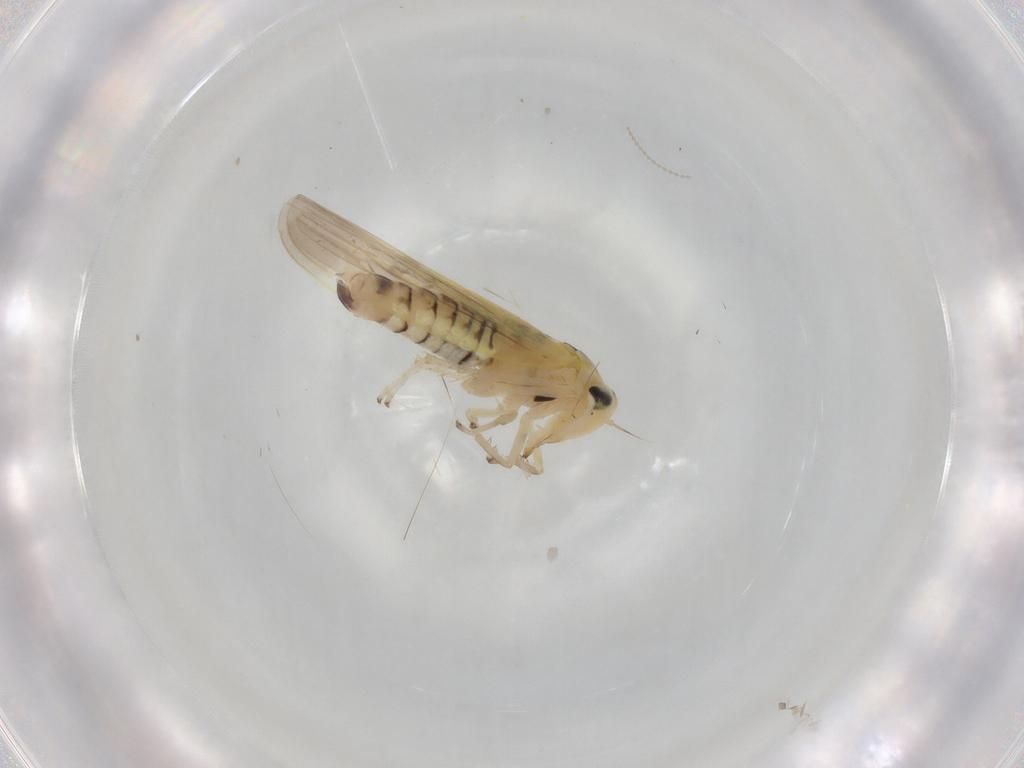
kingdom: Animalia
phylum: Arthropoda
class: Insecta
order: Hemiptera
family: Cicadellidae
